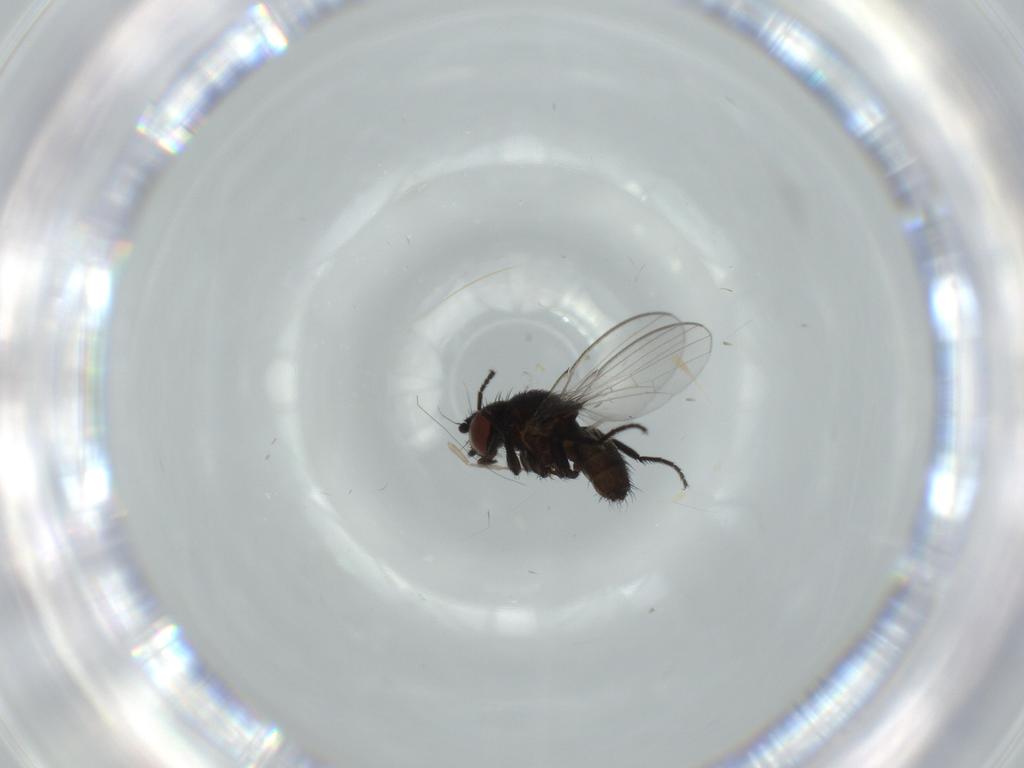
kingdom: Animalia
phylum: Arthropoda
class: Insecta
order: Diptera
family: Milichiidae
